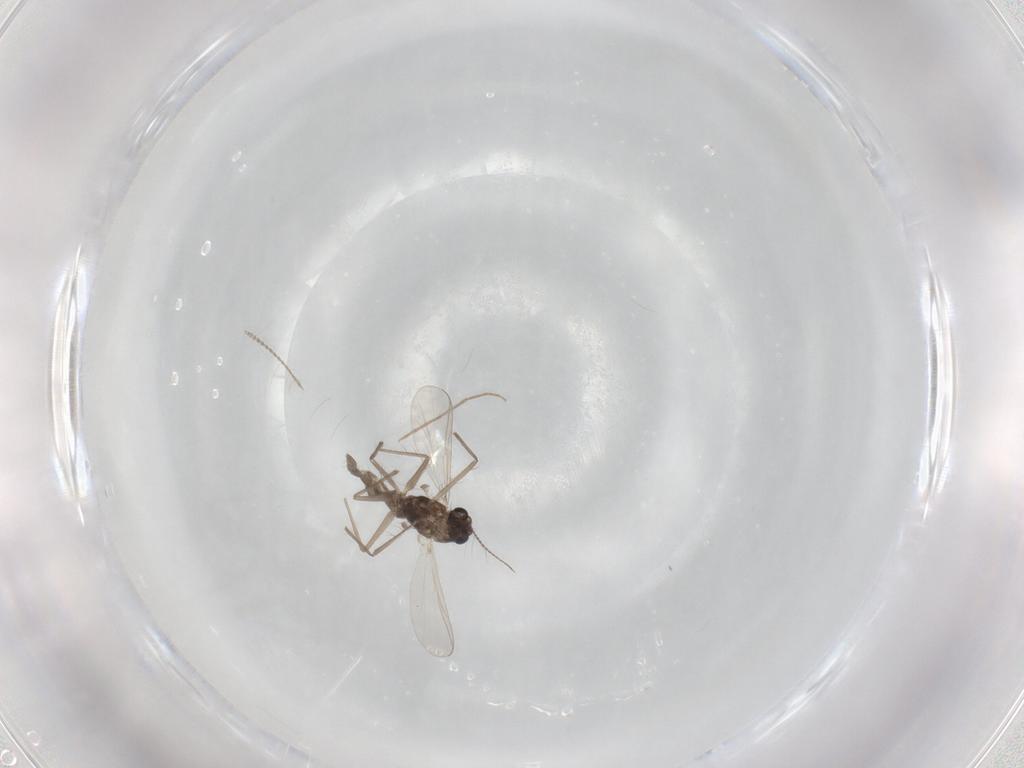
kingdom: Animalia
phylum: Arthropoda
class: Insecta
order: Diptera
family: Chironomidae
